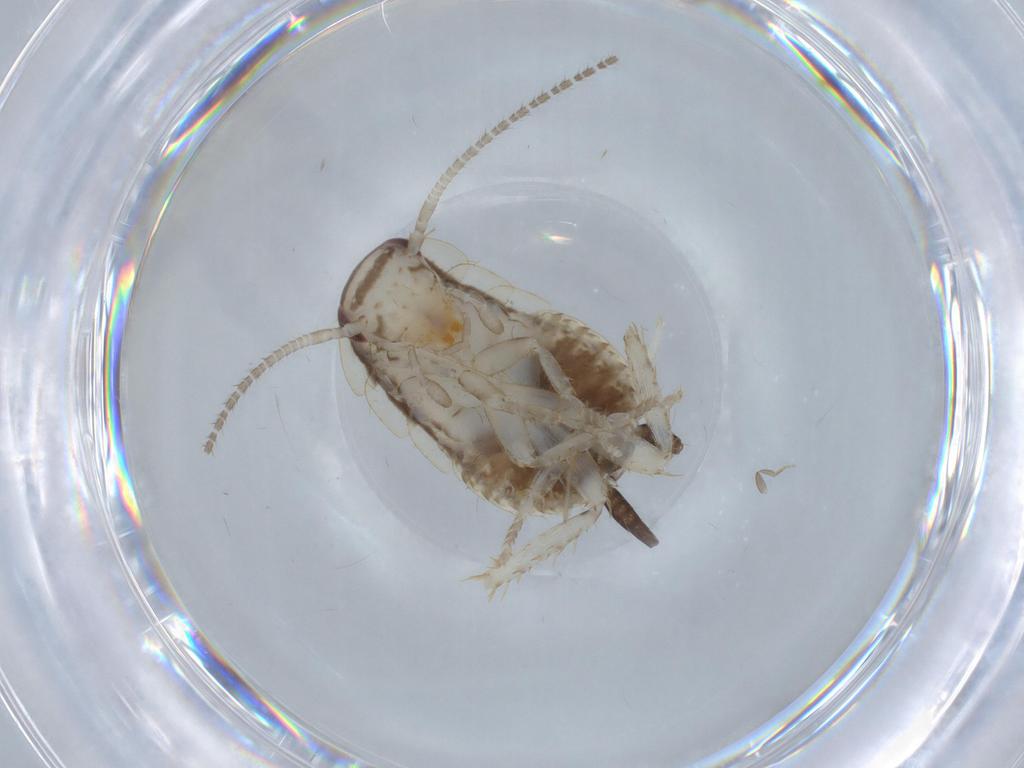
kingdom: Animalia
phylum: Arthropoda
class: Insecta
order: Blattodea
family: Ectobiidae
